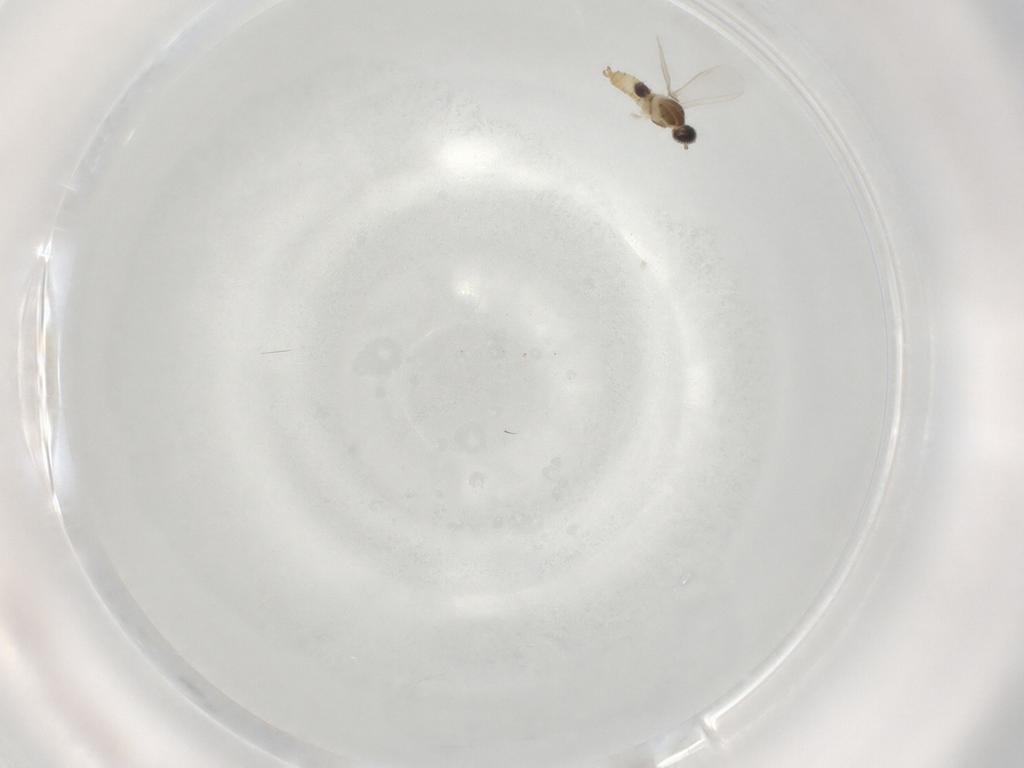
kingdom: Animalia
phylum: Arthropoda
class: Insecta
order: Diptera
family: Cecidomyiidae
